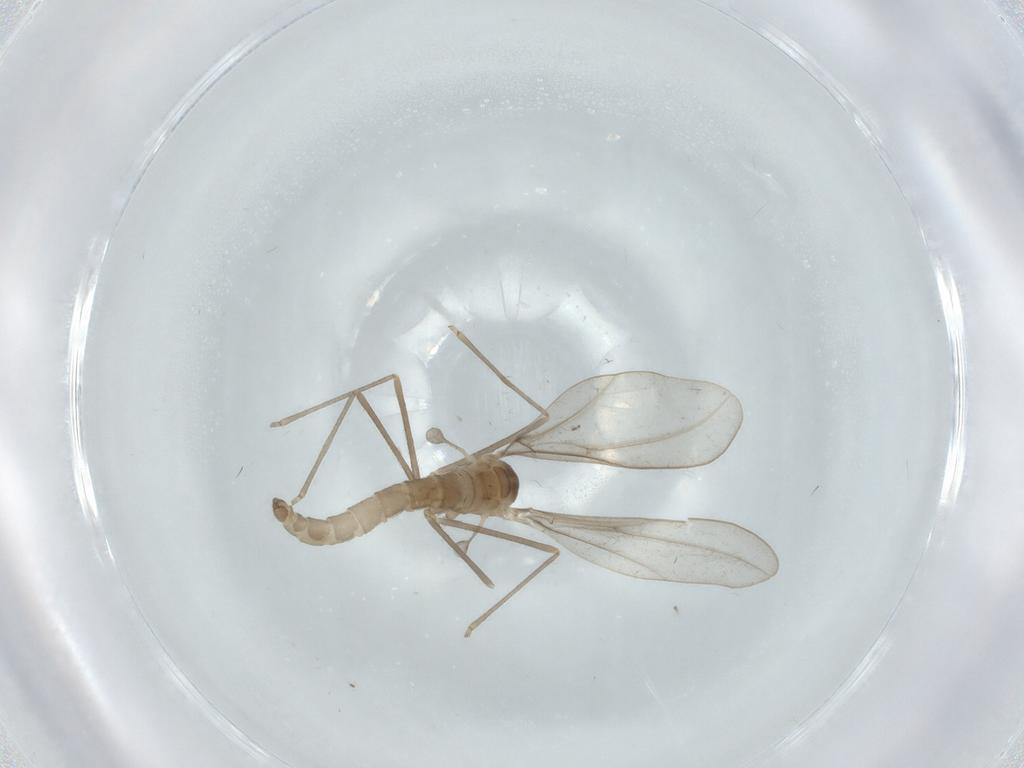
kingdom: Animalia
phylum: Arthropoda
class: Insecta
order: Diptera
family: Cecidomyiidae
